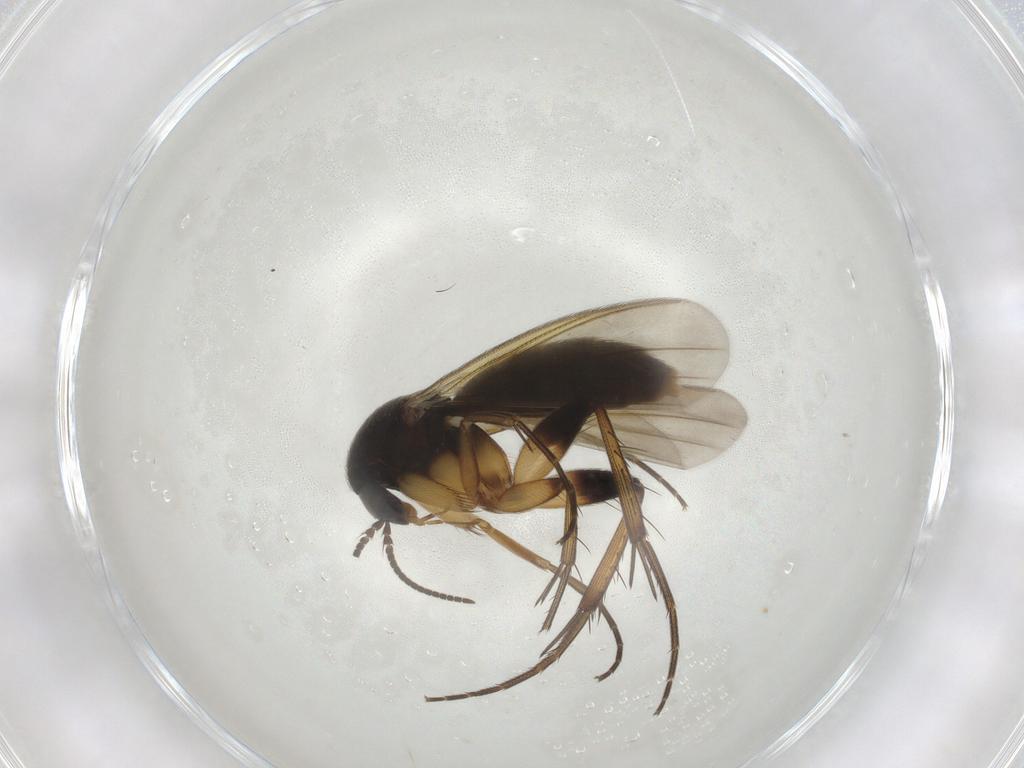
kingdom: Animalia
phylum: Arthropoda
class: Insecta
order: Diptera
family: Mycetophilidae
